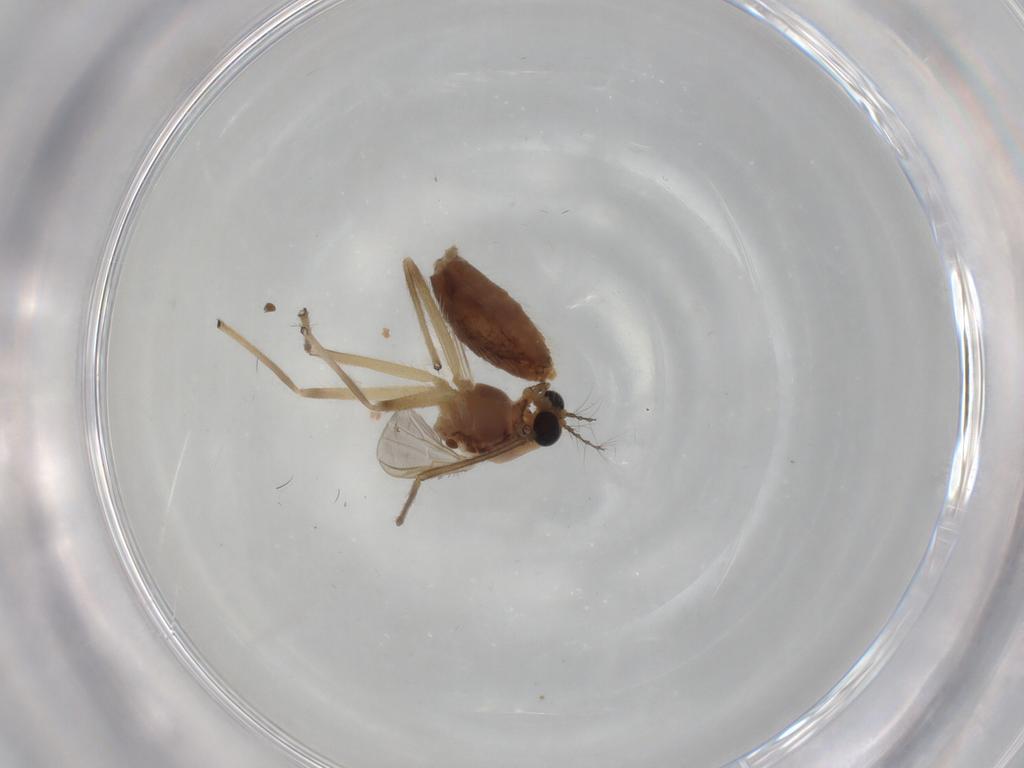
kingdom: Animalia
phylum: Arthropoda
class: Insecta
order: Diptera
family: Chironomidae
